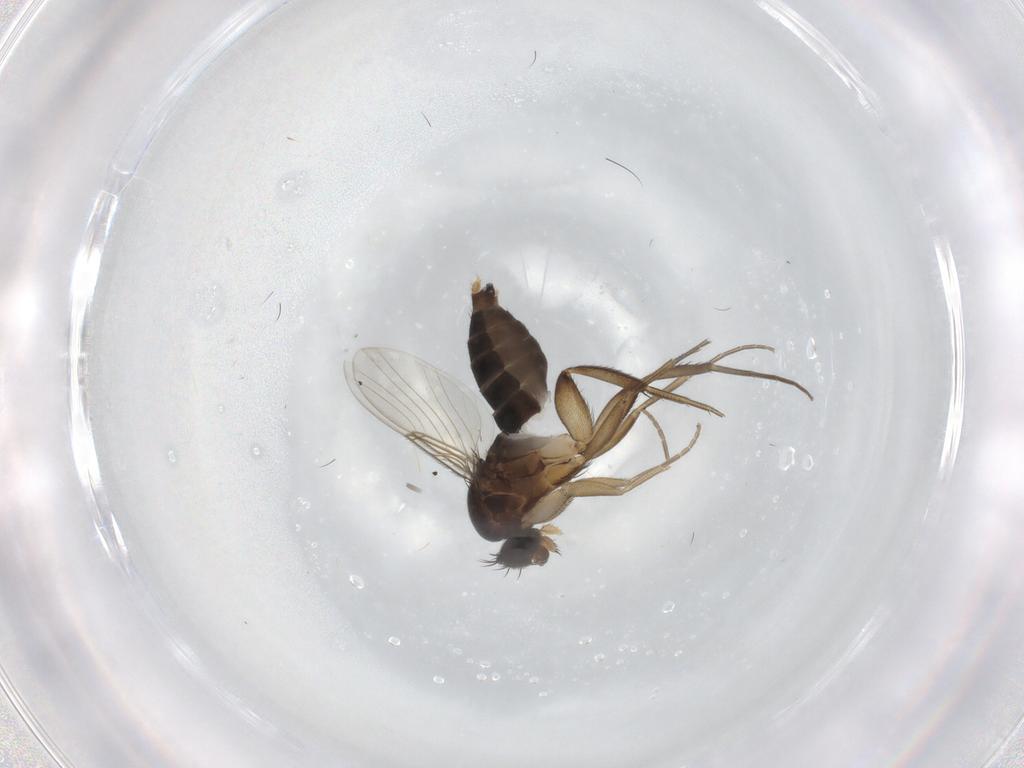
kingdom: Animalia
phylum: Arthropoda
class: Insecta
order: Diptera
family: Phoridae
